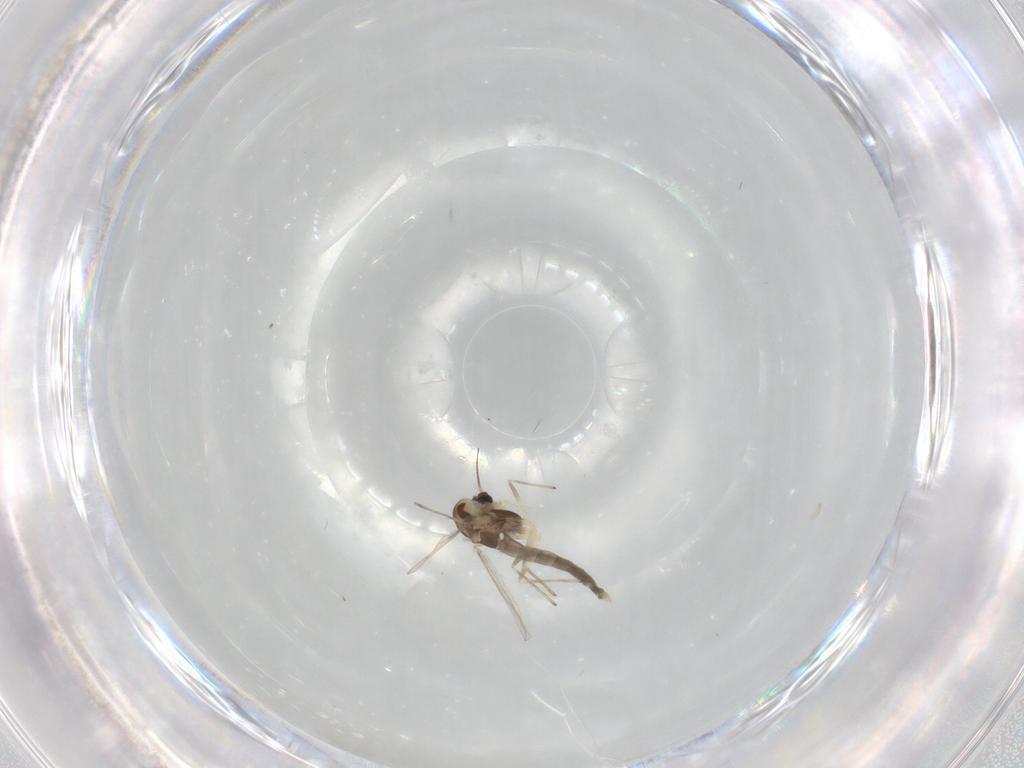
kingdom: Animalia
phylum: Arthropoda
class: Insecta
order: Diptera
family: Chironomidae
